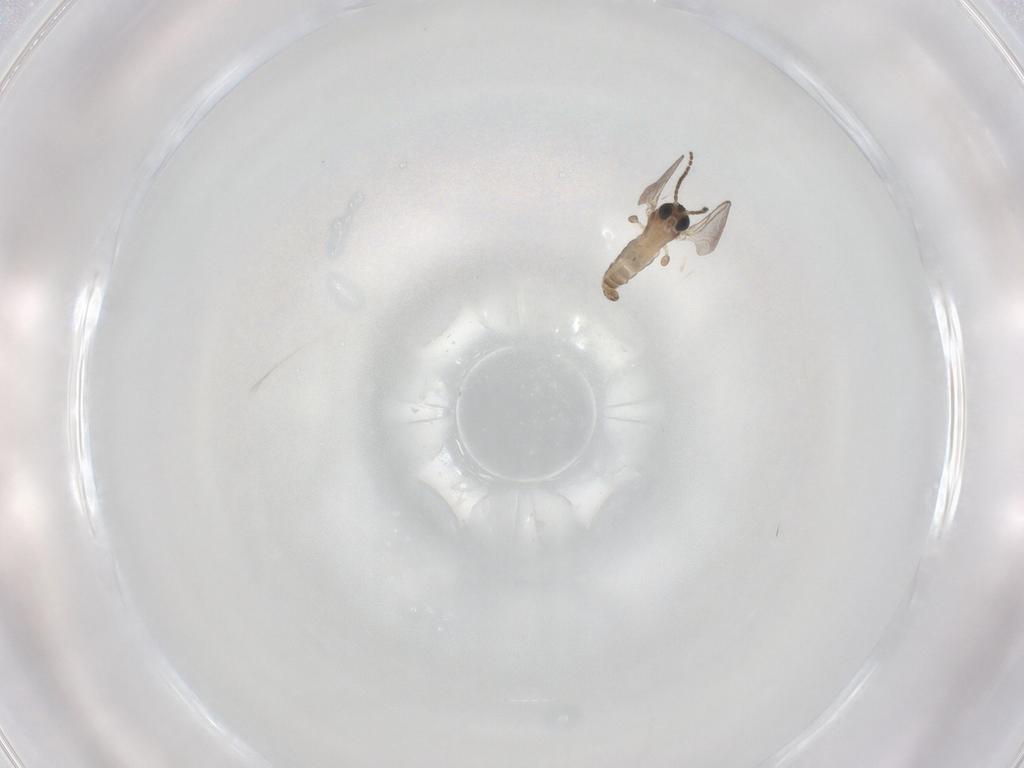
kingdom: Animalia
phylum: Arthropoda
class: Insecta
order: Diptera
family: Sciaridae
